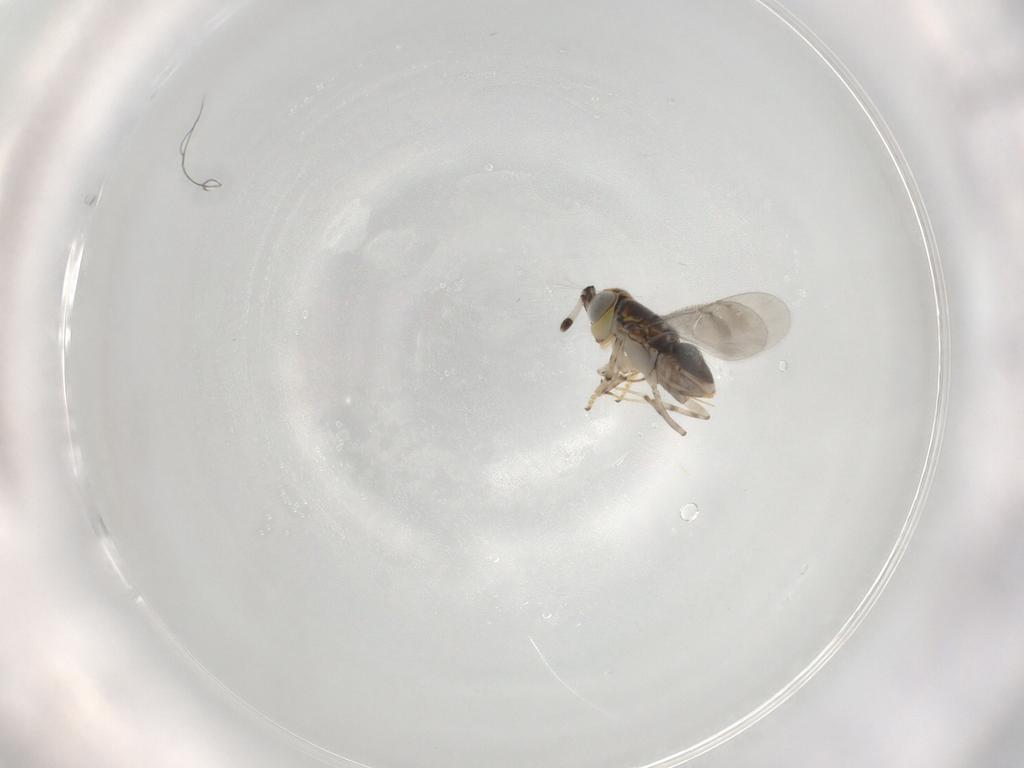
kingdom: Animalia
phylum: Arthropoda
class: Insecta
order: Hymenoptera
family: Encyrtidae
